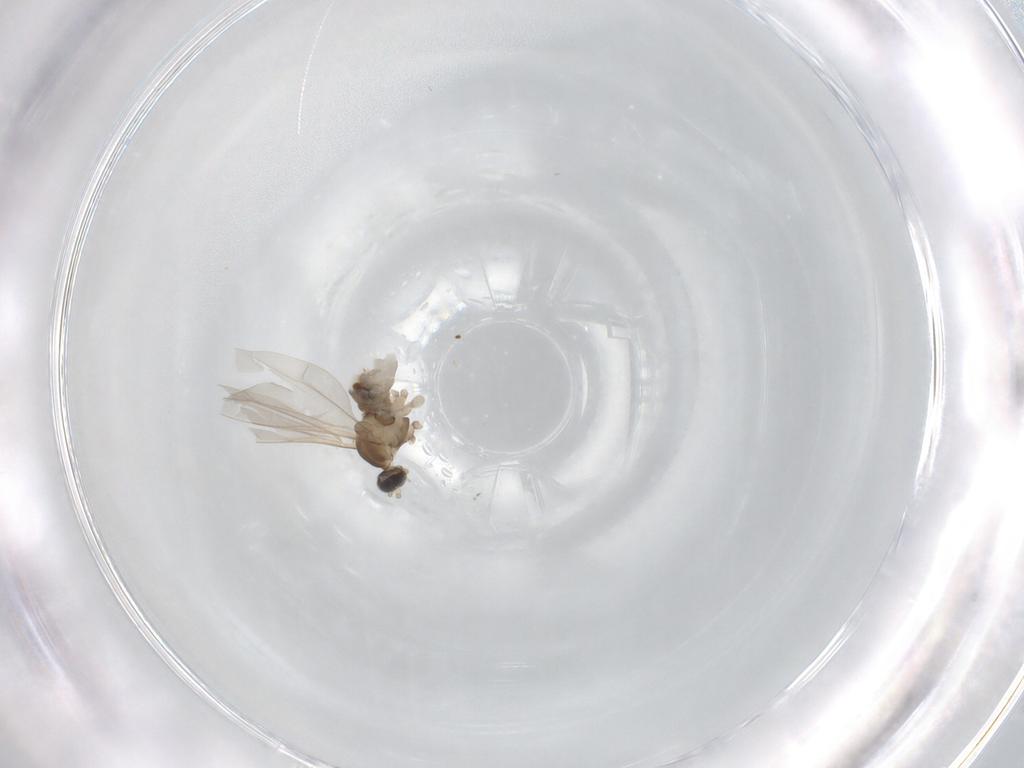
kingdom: Animalia
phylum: Arthropoda
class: Insecta
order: Diptera
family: Cecidomyiidae
